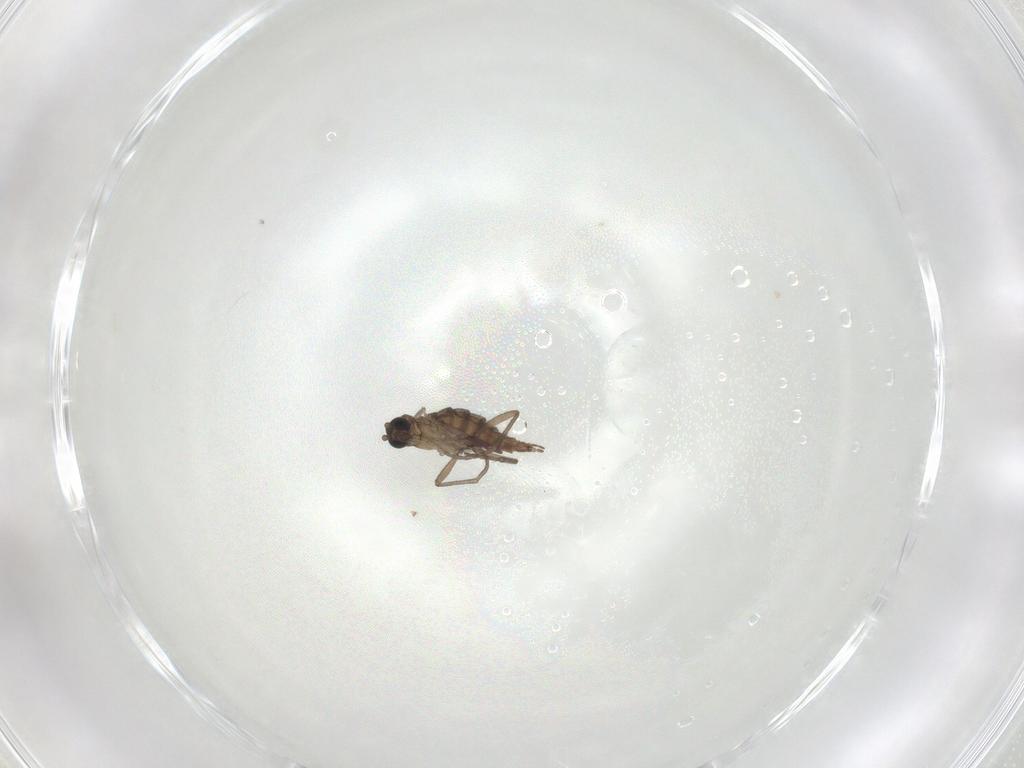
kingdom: Animalia
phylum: Arthropoda
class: Insecta
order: Diptera
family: Sciaridae
